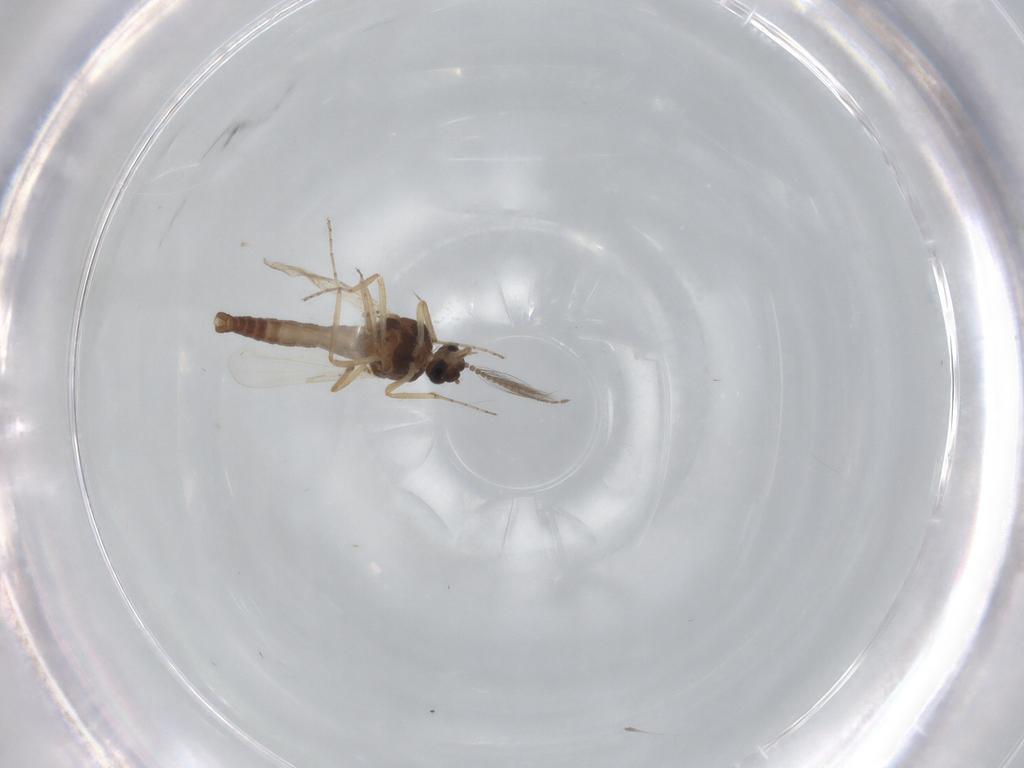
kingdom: Animalia
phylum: Arthropoda
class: Insecta
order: Diptera
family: Ceratopogonidae
